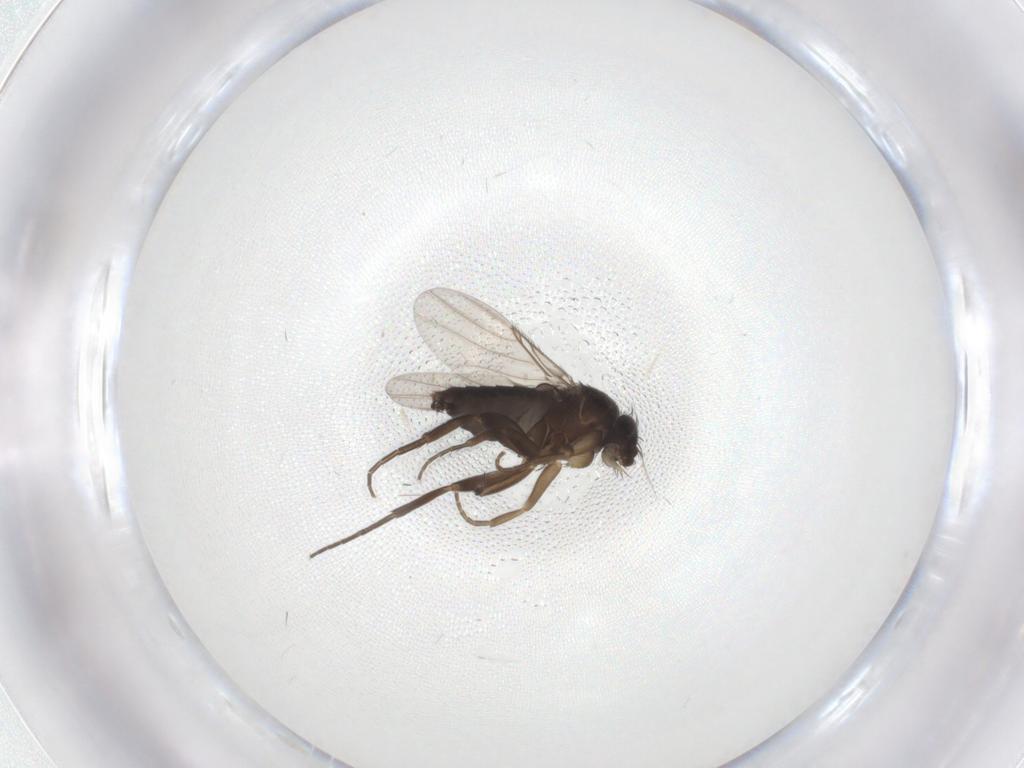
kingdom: Animalia
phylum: Arthropoda
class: Insecta
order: Diptera
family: Phoridae
